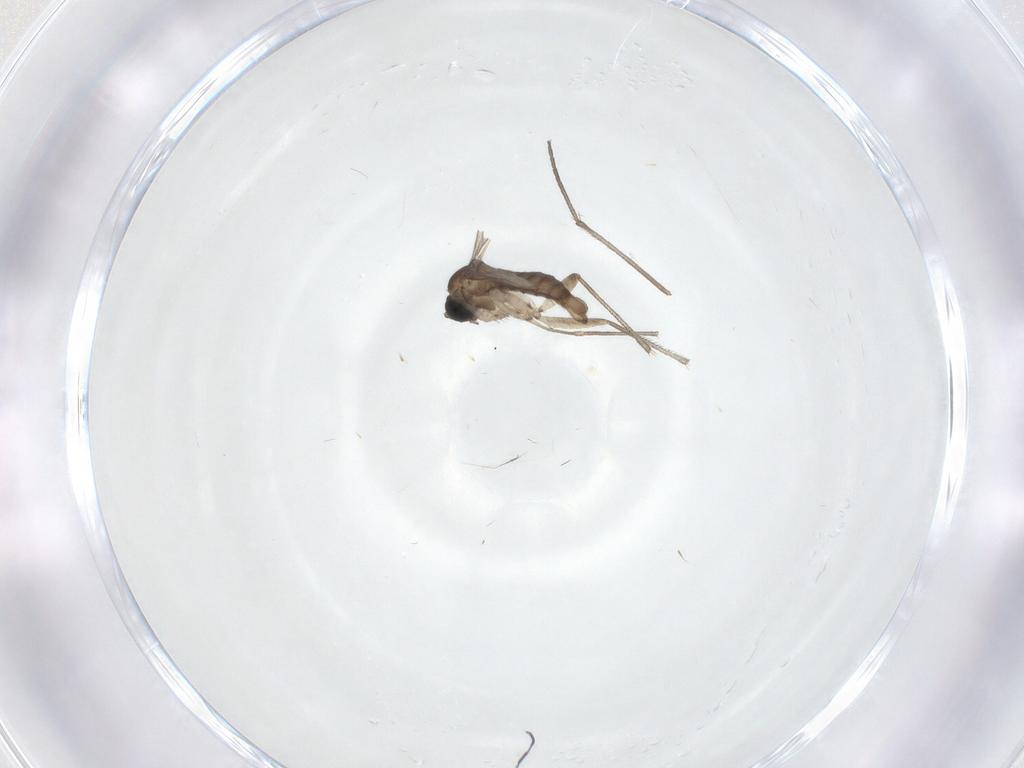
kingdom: Animalia
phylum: Arthropoda
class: Insecta
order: Diptera
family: Sciaridae
